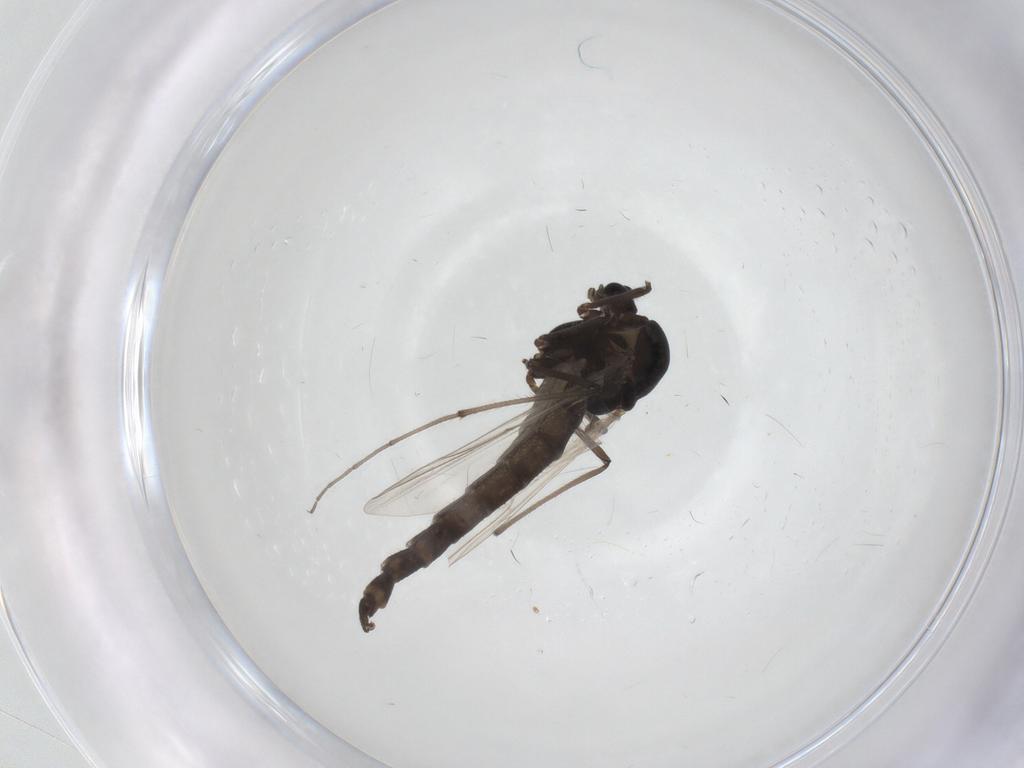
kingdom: Animalia
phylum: Arthropoda
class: Insecta
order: Diptera
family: Chironomidae
